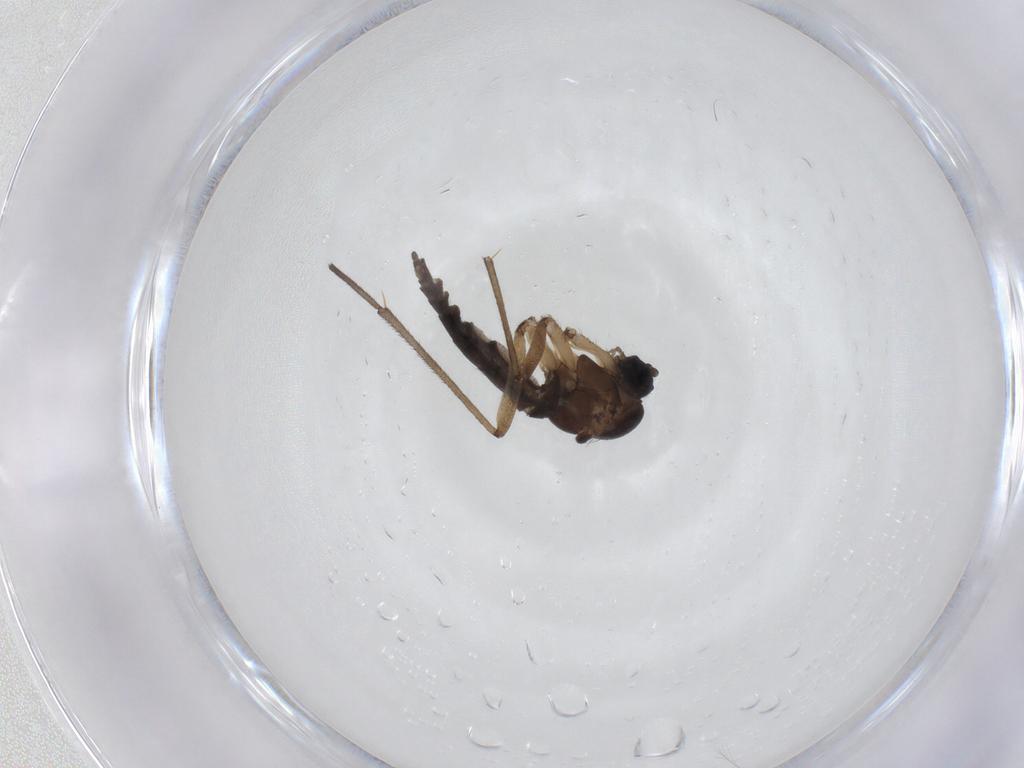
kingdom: Animalia
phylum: Arthropoda
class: Insecta
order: Diptera
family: Sciaridae
